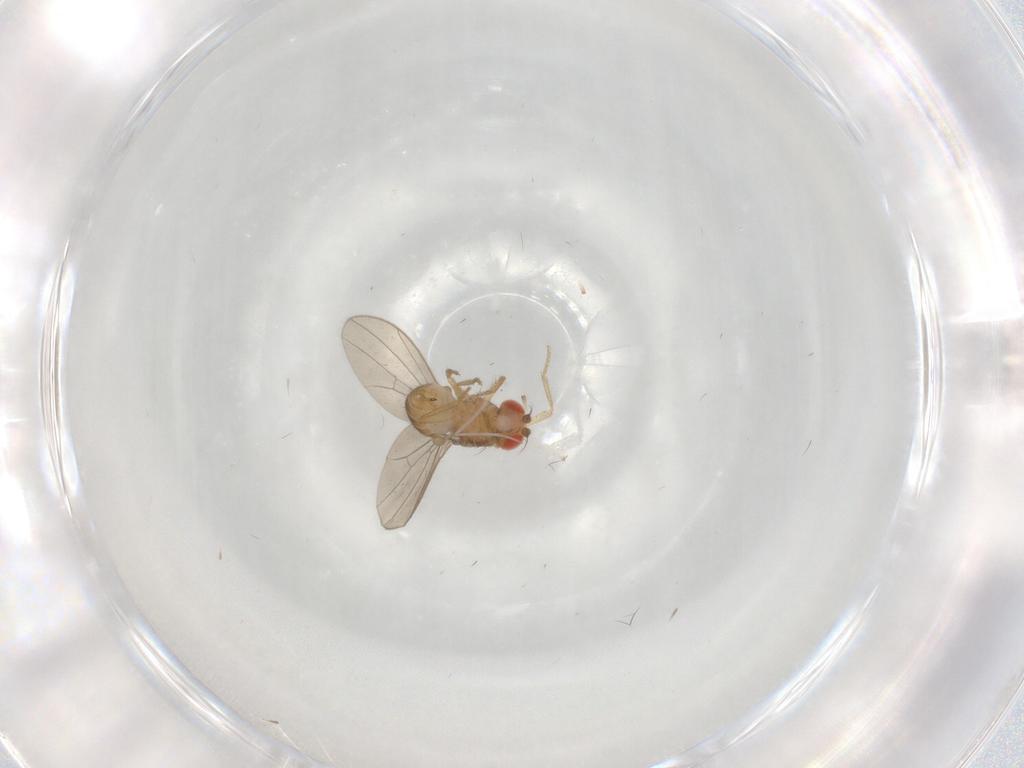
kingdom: Animalia
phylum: Arthropoda
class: Insecta
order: Diptera
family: Drosophilidae
